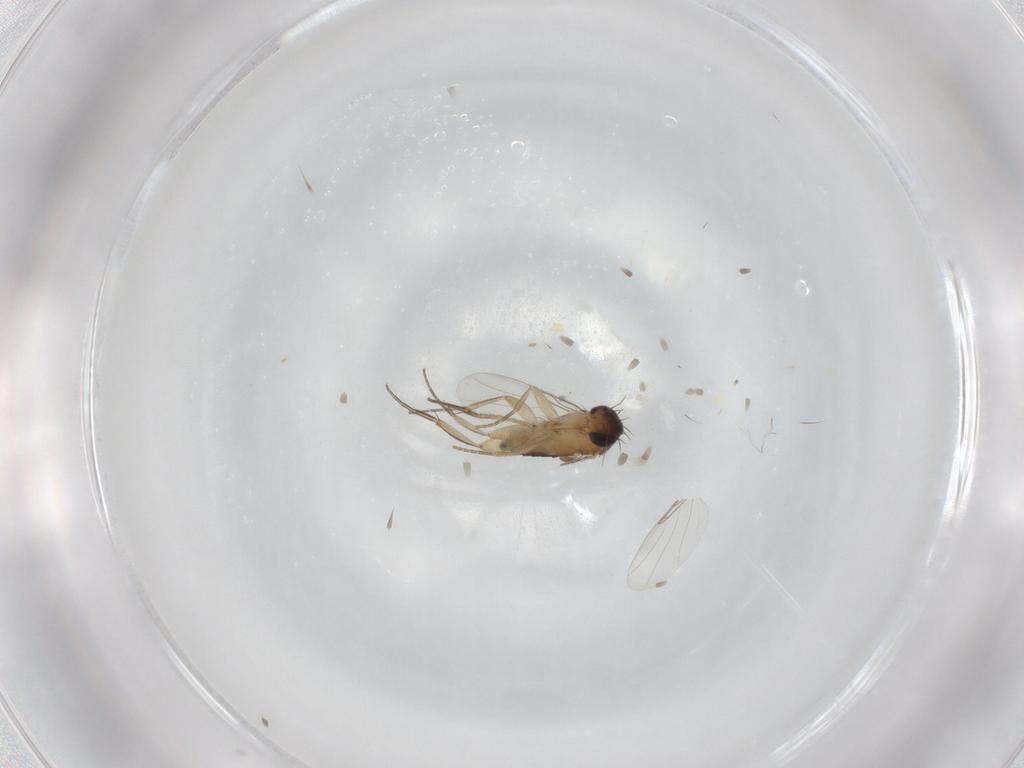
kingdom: Animalia
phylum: Arthropoda
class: Insecta
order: Diptera
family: Phoridae
